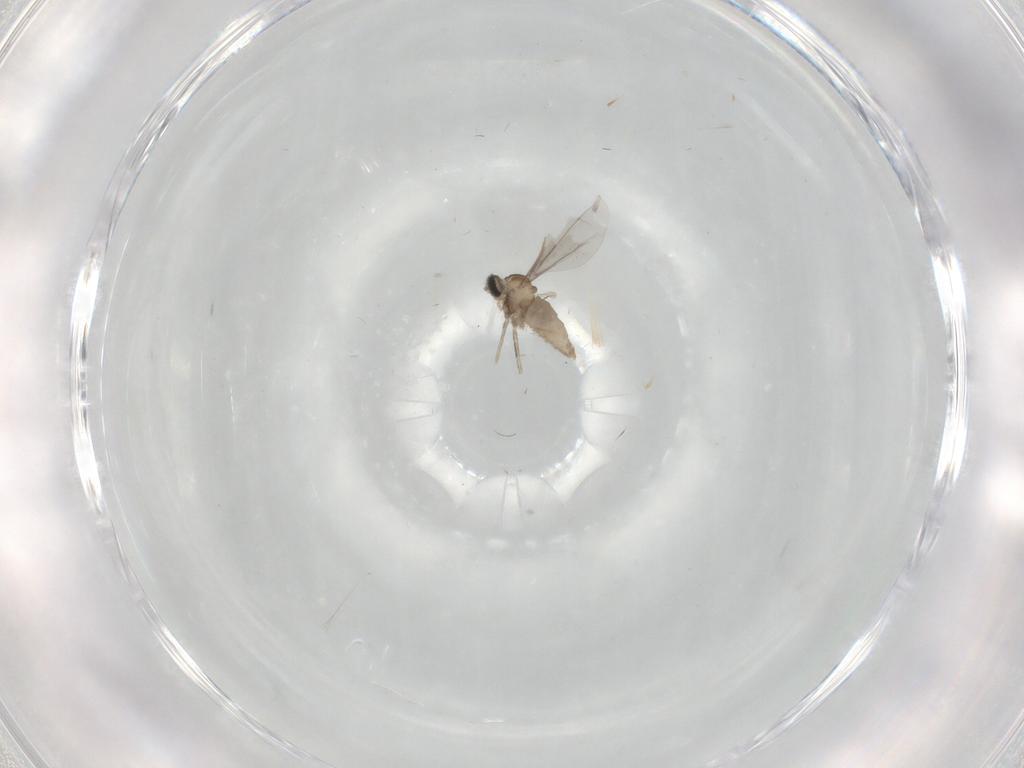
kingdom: Animalia
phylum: Arthropoda
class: Insecta
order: Diptera
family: Cecidomyiidae
